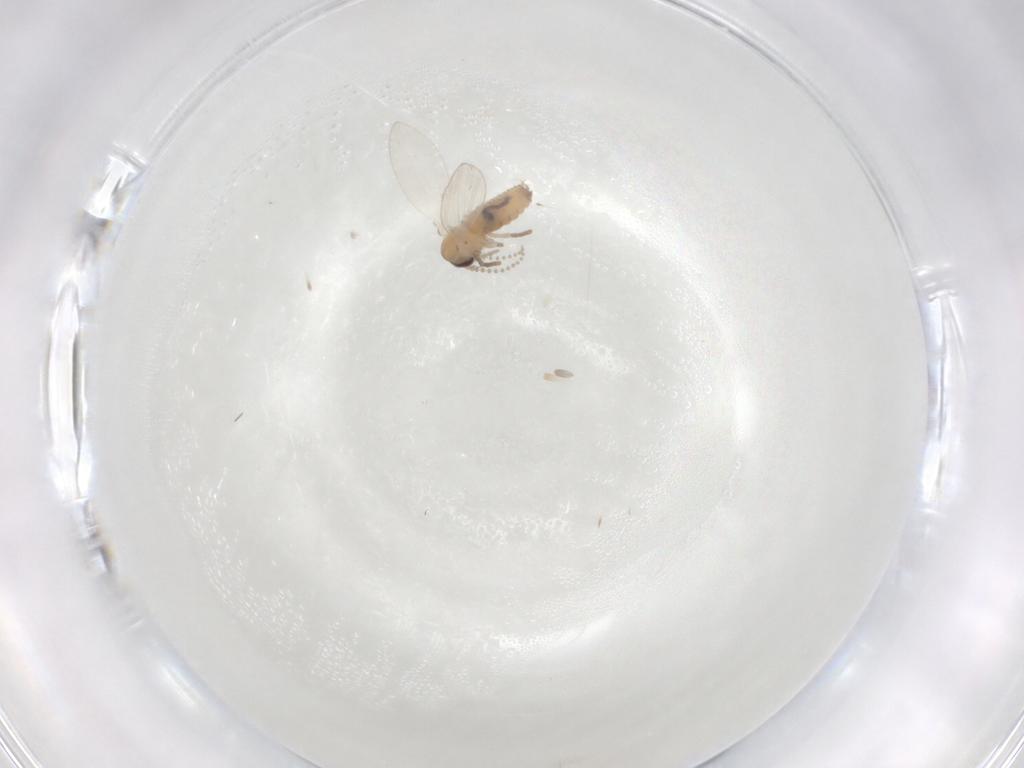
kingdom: Animalia
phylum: Arthropoda
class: Insecta
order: Diptera
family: Psychodidae
